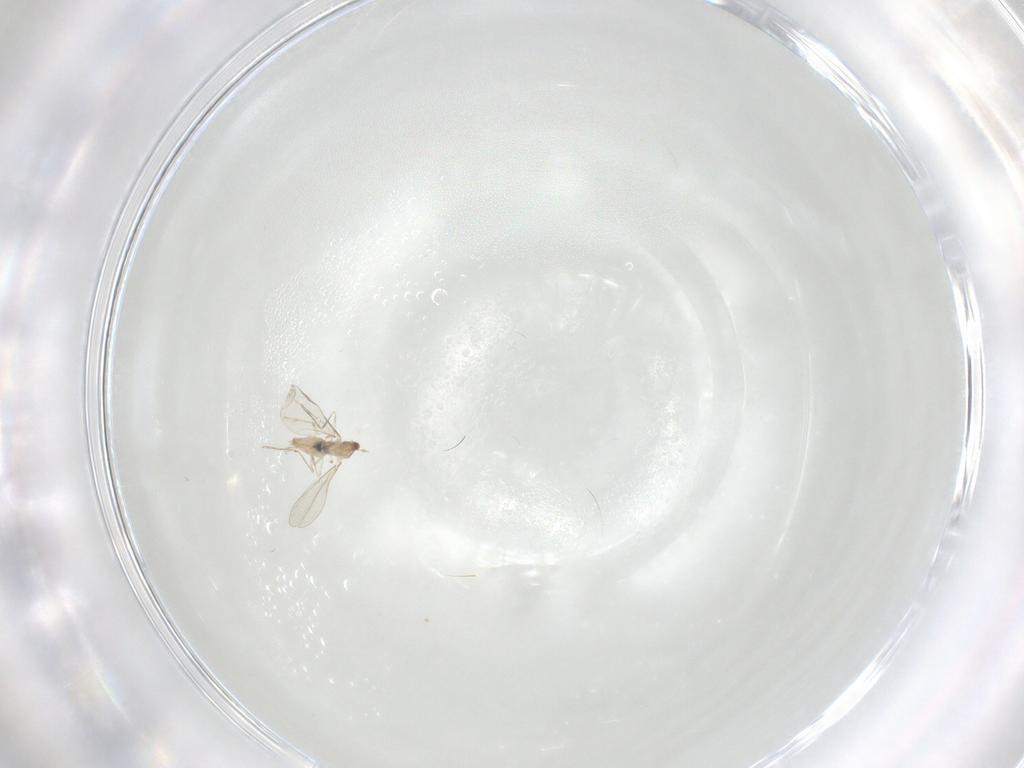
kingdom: Animalia
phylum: Arthropoda
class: Insecta
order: Diptera
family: Cecidomyiidae
